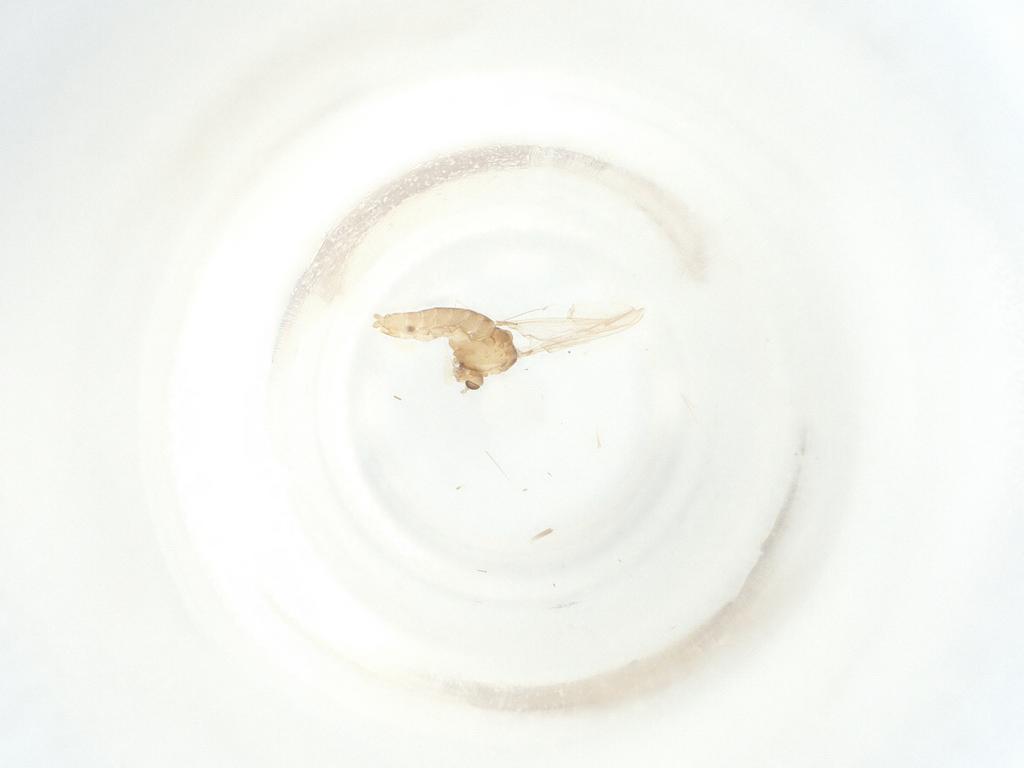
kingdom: Animalia
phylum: Arthropoda
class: Insecta
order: Diptera
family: Chironomidae
